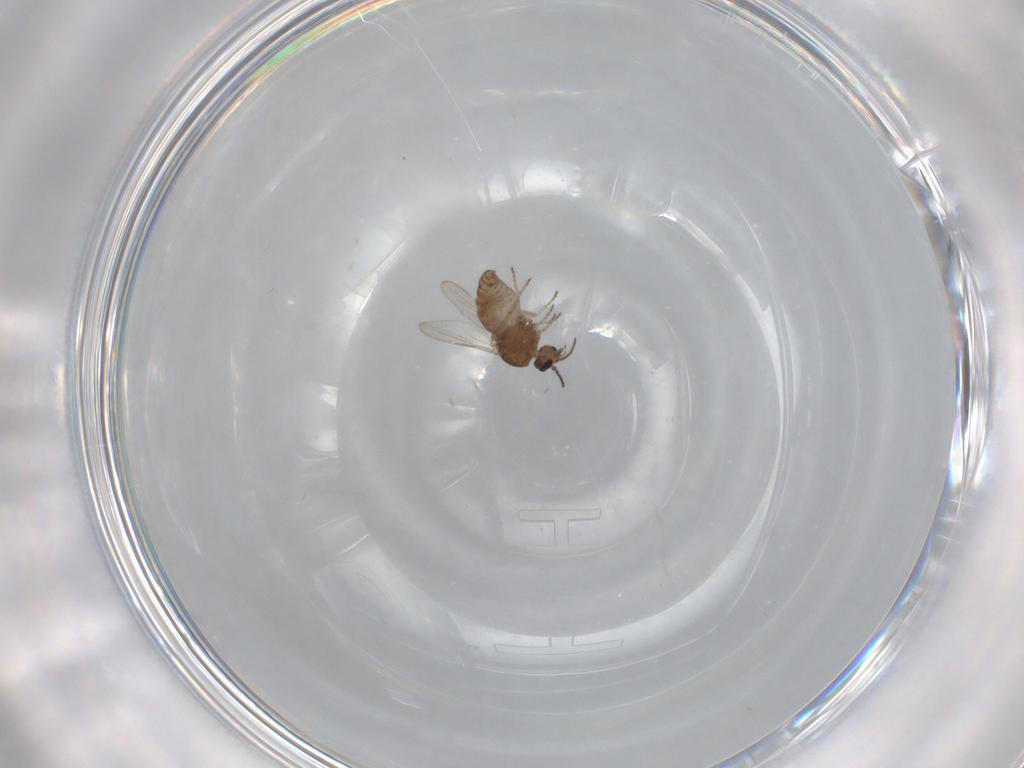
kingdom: Animalia
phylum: Arthropoda
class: Insecta
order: Diptera
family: Ceratopogonidae
